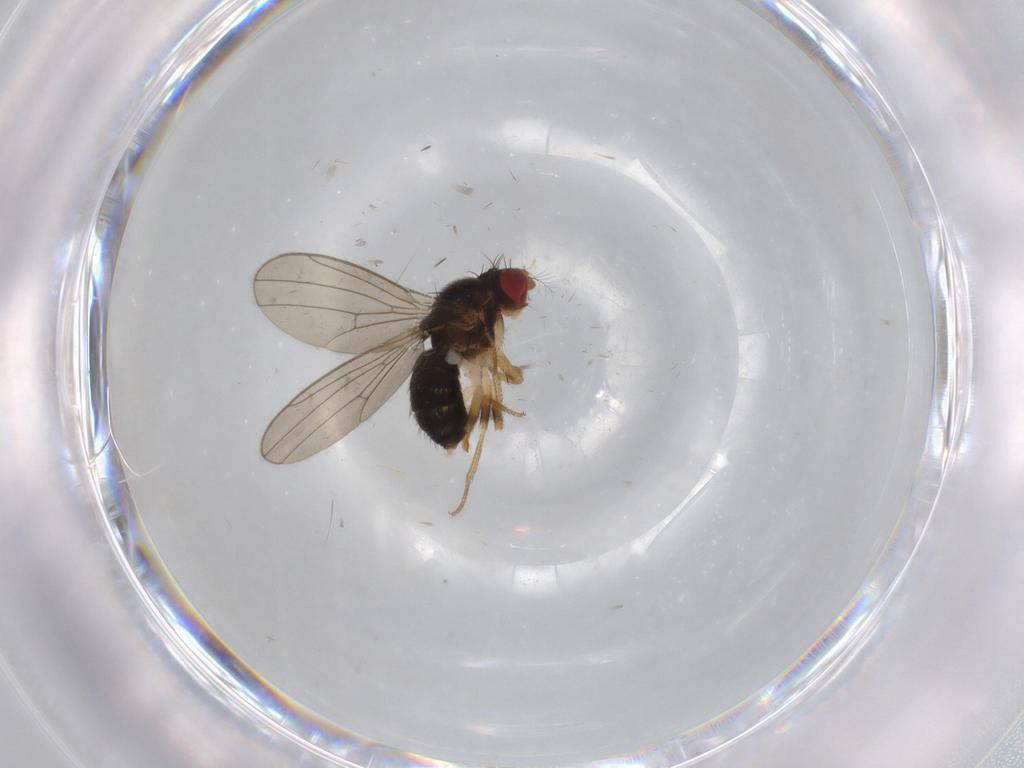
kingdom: Animalia
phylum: Arthropoda
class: Insecta
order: Diptera
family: Drosophilidae
